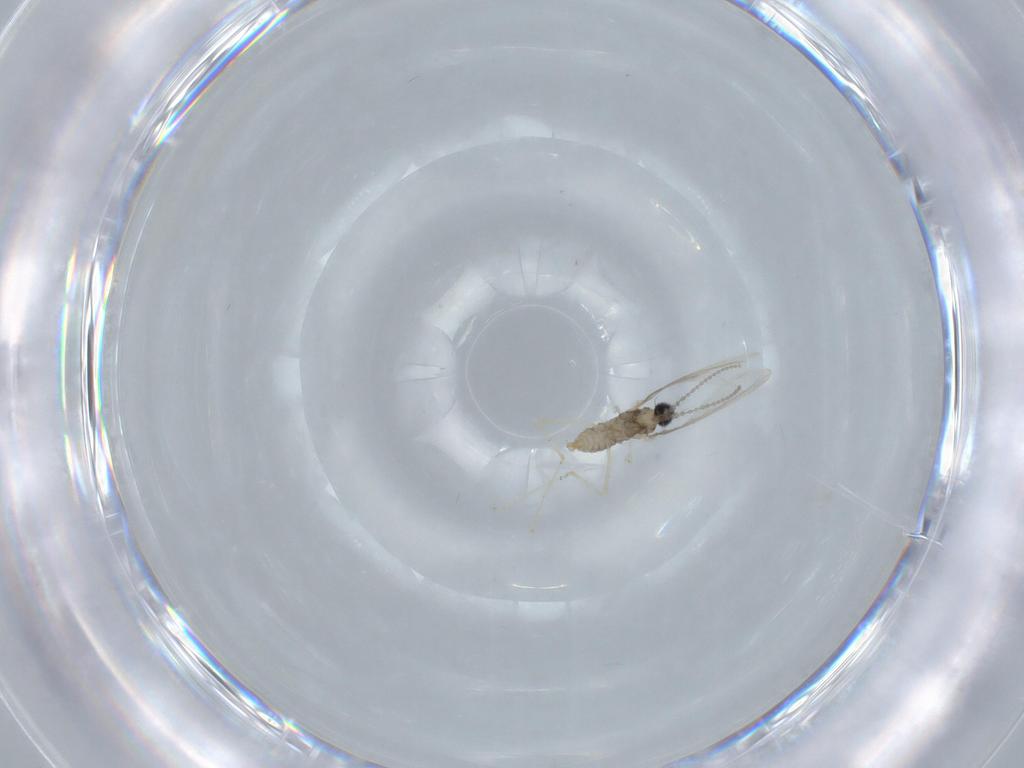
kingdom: Animalia
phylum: Arthropoda
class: Insecta
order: Diptera
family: Cecidomyiidae
